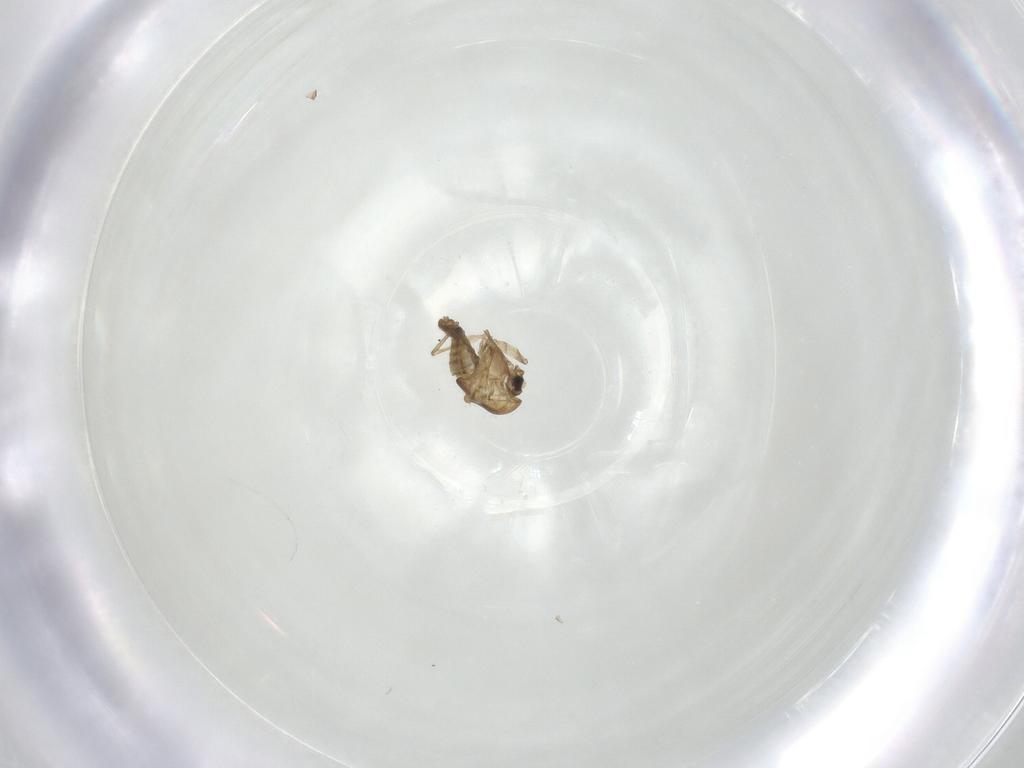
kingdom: Animalia
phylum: Arthropoda
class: Insecta
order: Diptera
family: Chironomidae
